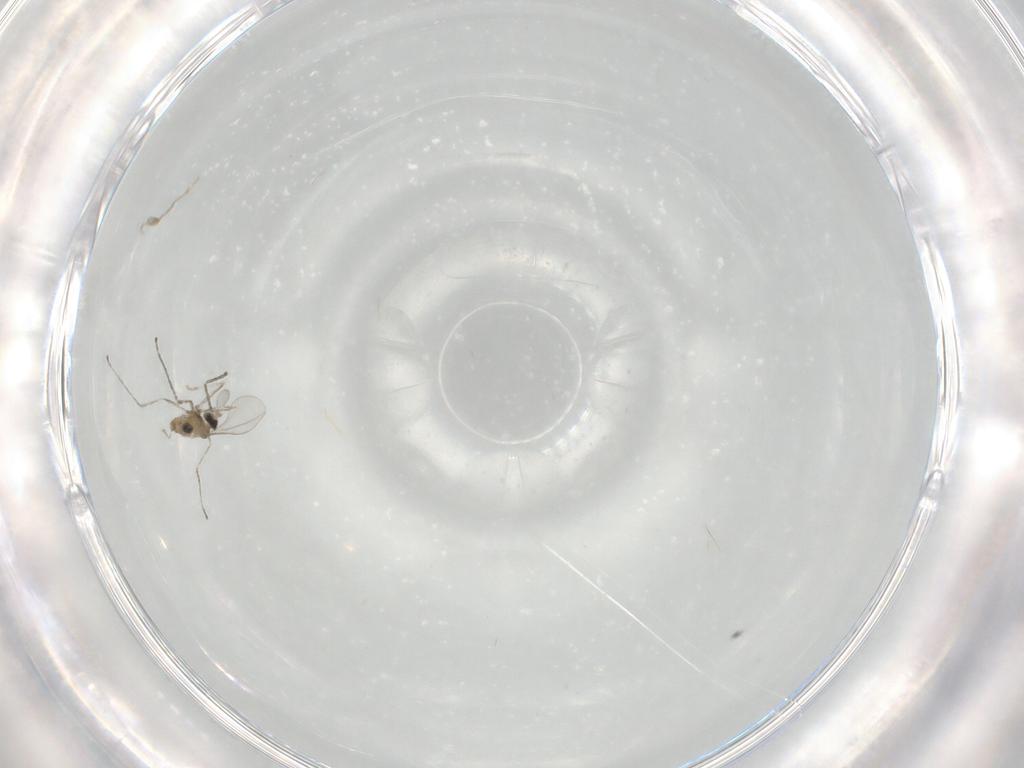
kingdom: Animalia
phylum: Arthropoda
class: Insecta
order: Diptera
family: Cecidomyiidae
